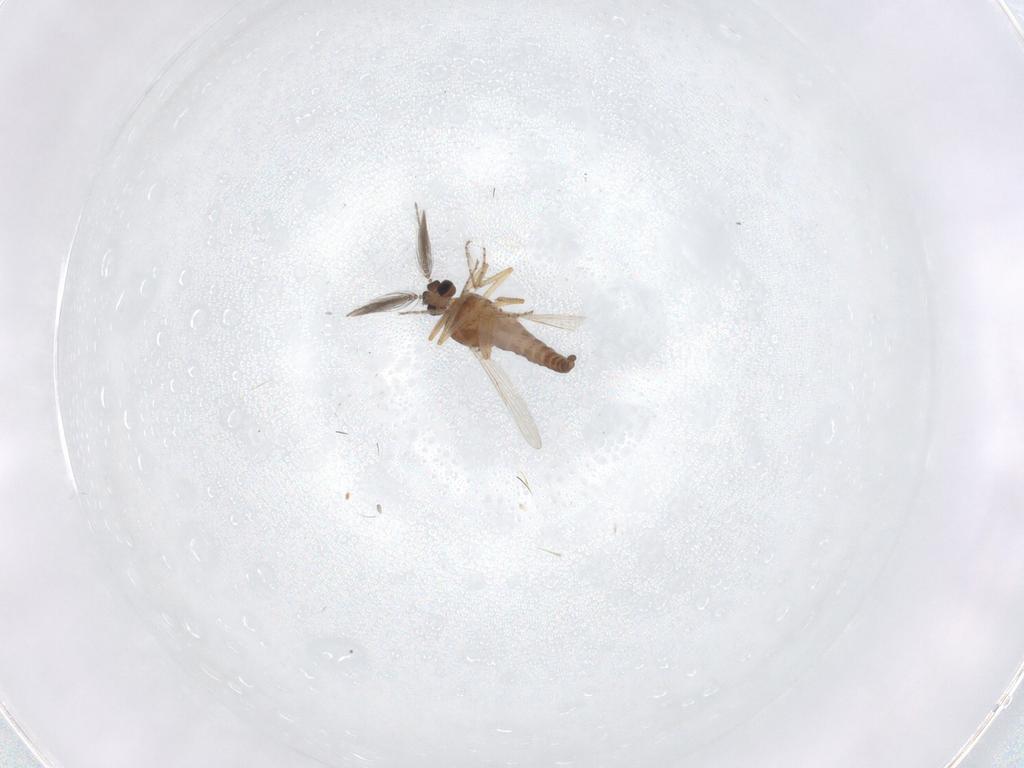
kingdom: Animalia
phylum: Arthropoda
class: Insecta
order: Diptera
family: Ceratopogonidae
